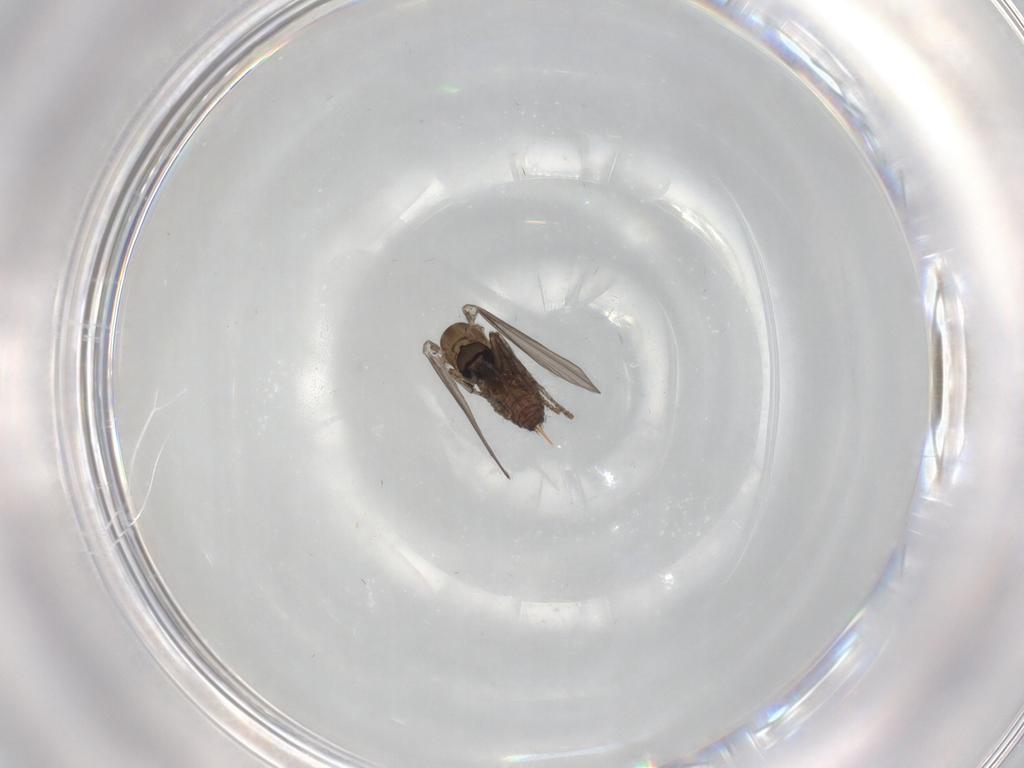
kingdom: Animalia
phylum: Arthropoda
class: Insecta
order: Diptera
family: Psychodidae
